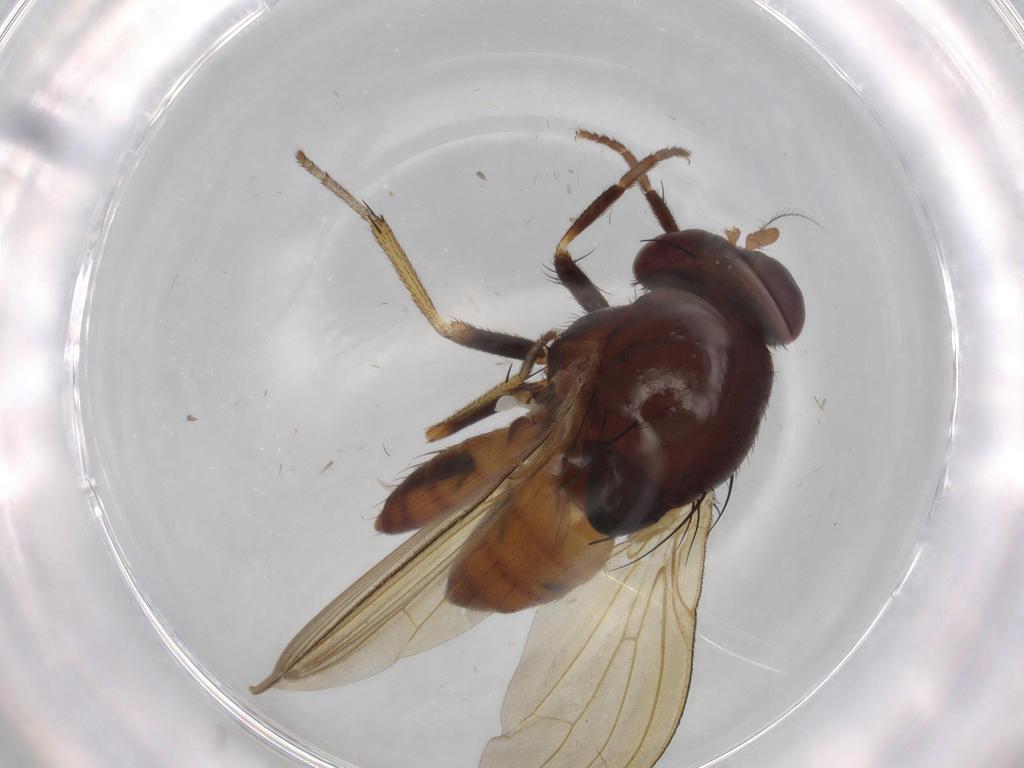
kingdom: Animalia
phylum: Arthropoda
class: Insecta
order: Diptera
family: Lauxaniidae
